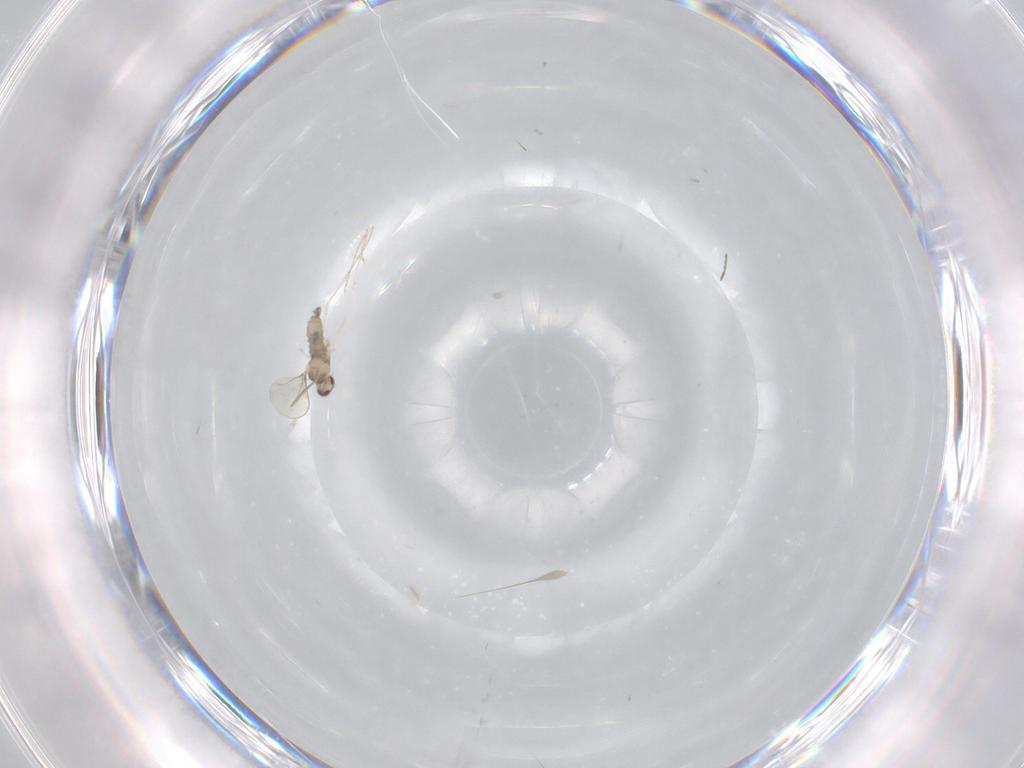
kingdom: Animalia
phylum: Arthropoda
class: Insecta
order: Diptera
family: Cecidomyiidae
